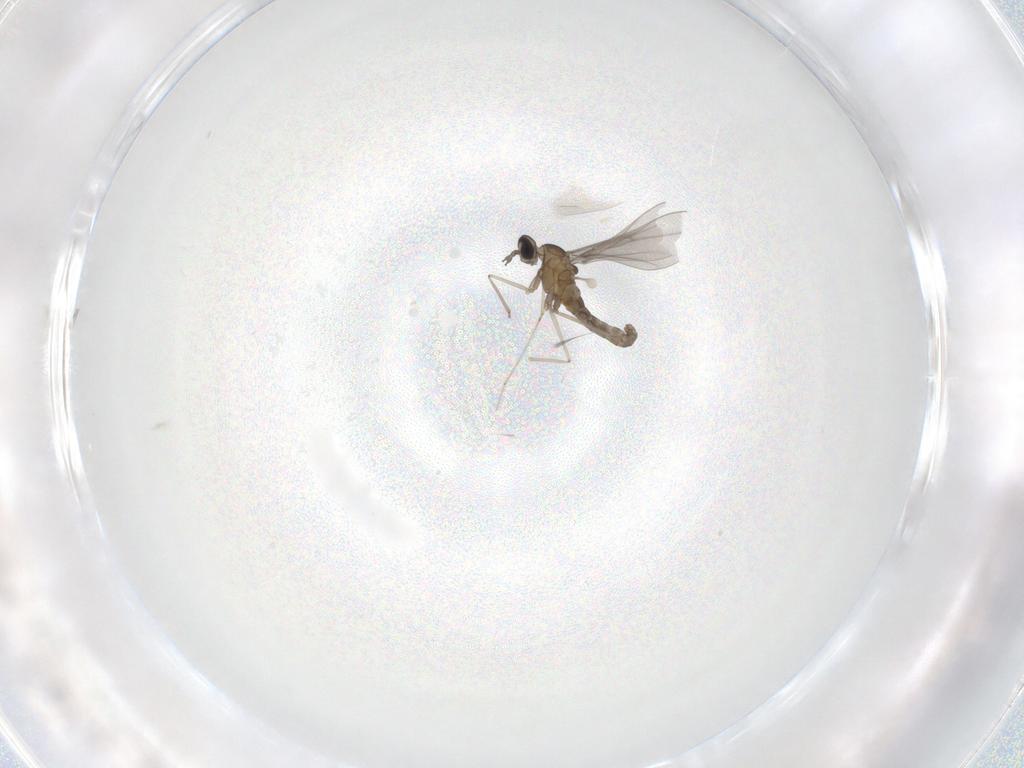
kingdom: Animalia
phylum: Arthropoda
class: Insecta
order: Diptera
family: Cecidomyiidae
